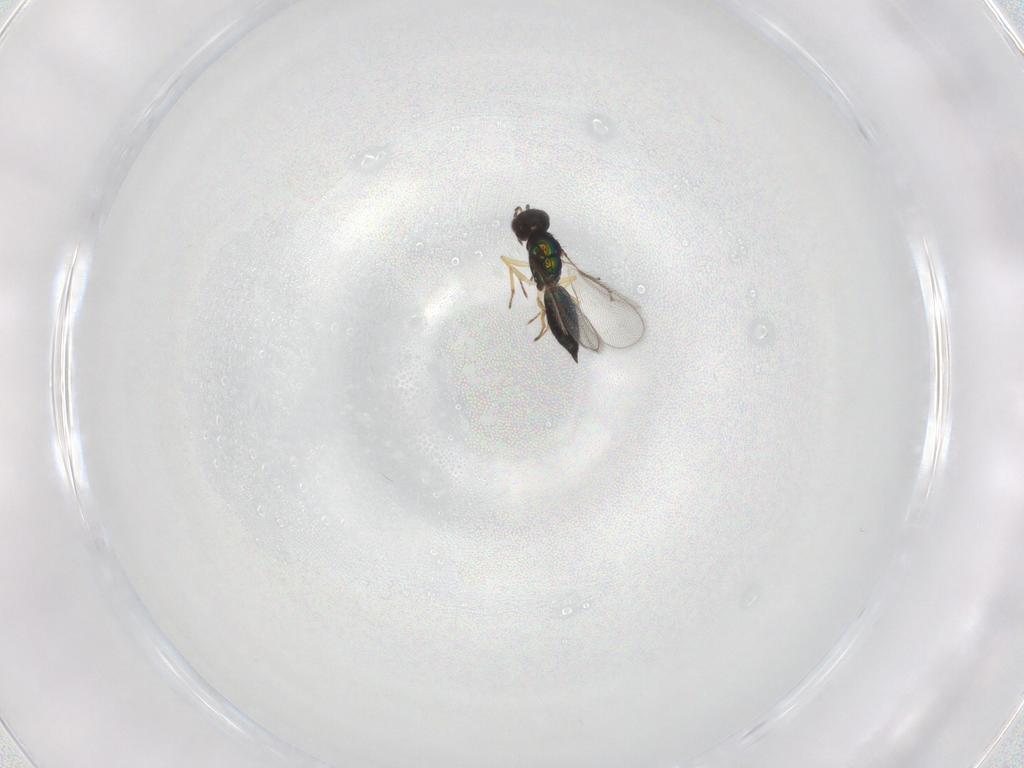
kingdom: Animalia
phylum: Arthropoda
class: Insecta
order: Hymenoptera
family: Eulophidae
